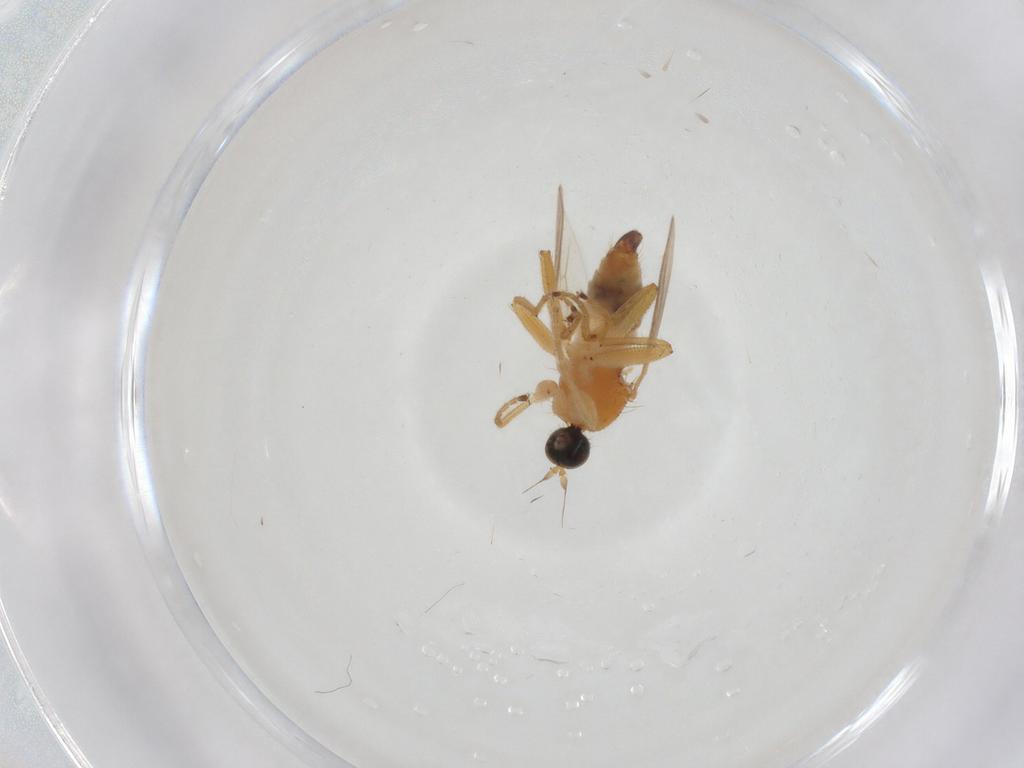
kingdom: Animalia
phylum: Arthropoda
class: Insecta
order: Diptera
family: Hybotidae
